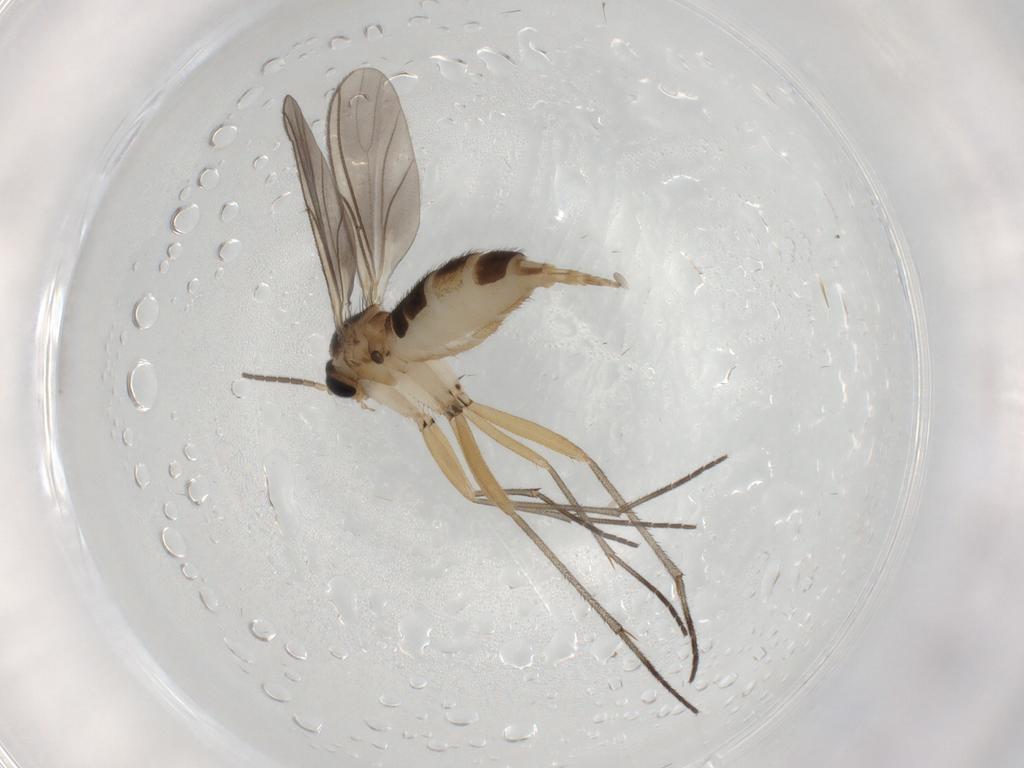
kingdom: Animalia
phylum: Arthropoda
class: Insecta
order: Diptera
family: Sciaridae
